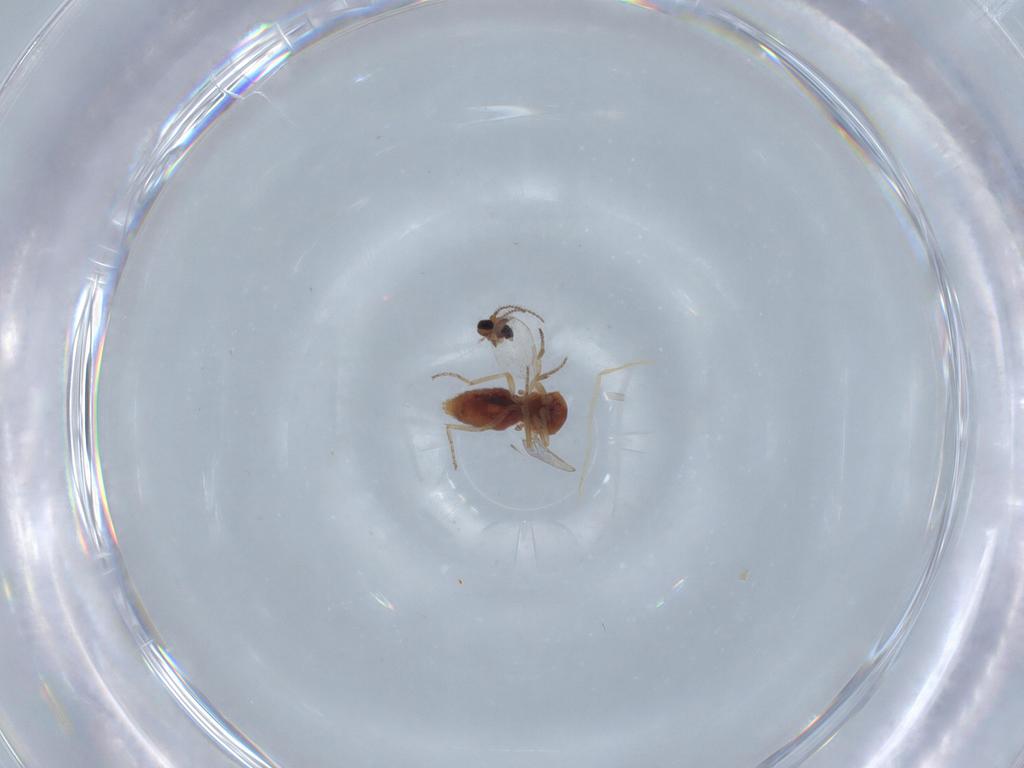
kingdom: Animalia
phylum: Arthropoda
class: Insecta
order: Diptera
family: Ceratopogonidae
